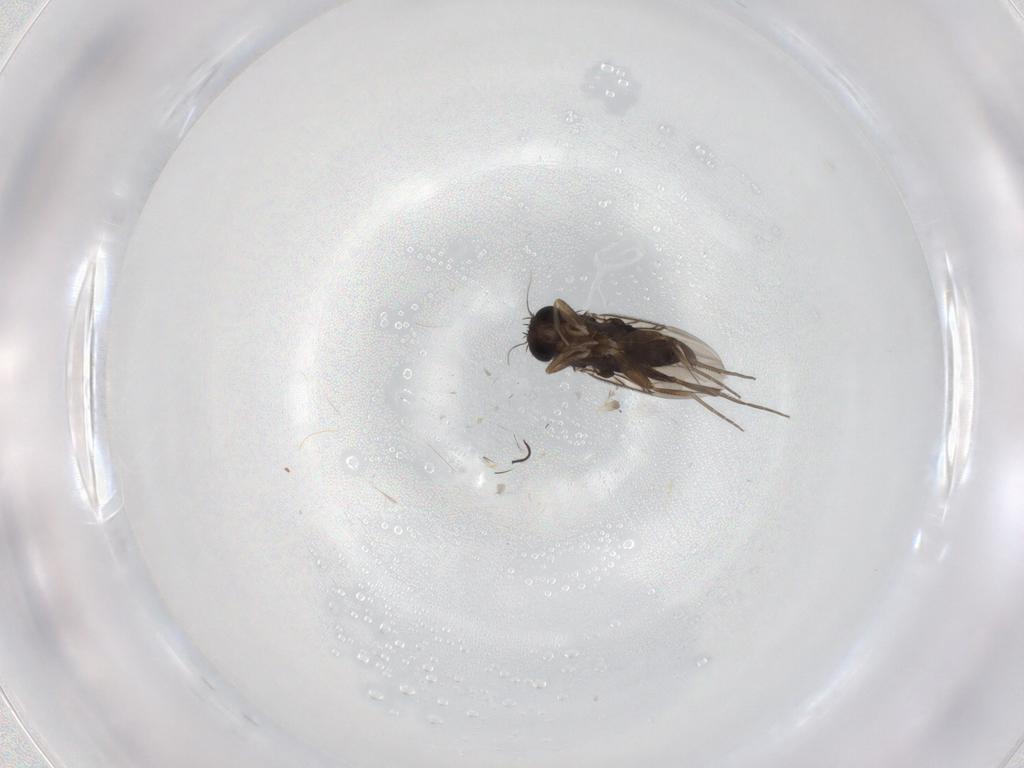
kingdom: Animalia
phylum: Arthropoda
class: Insecta
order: Diptera
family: Phoridae
